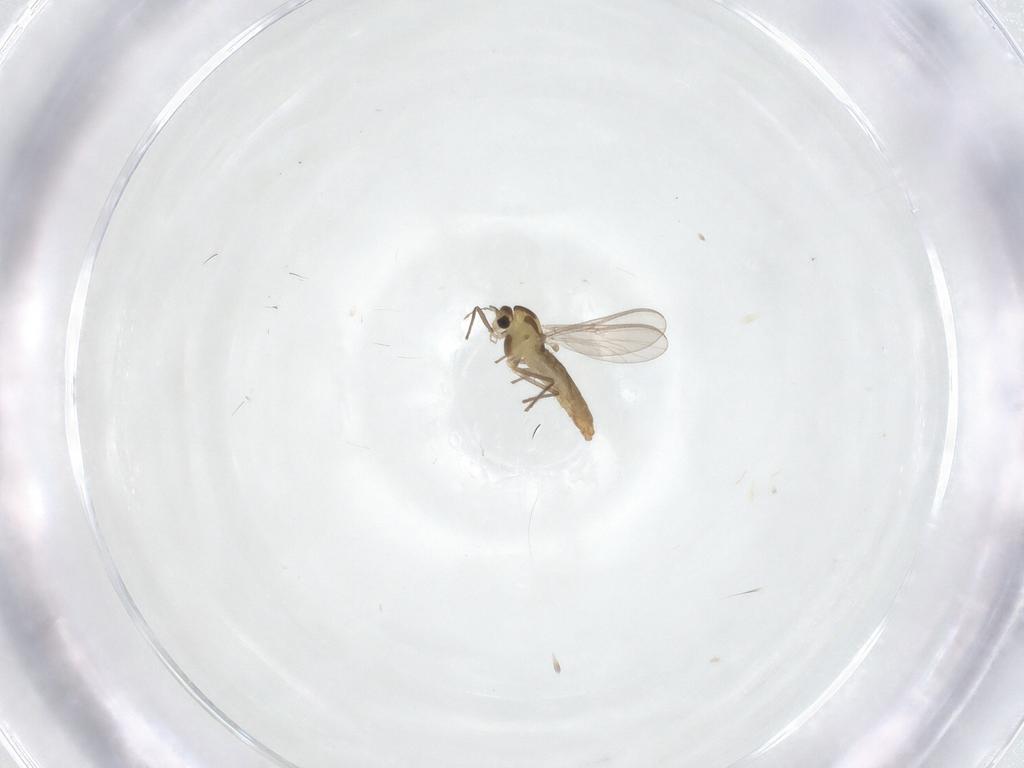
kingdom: Animalia
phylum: Arthropoda
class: Insecta
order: Diptera
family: Chironomidae
